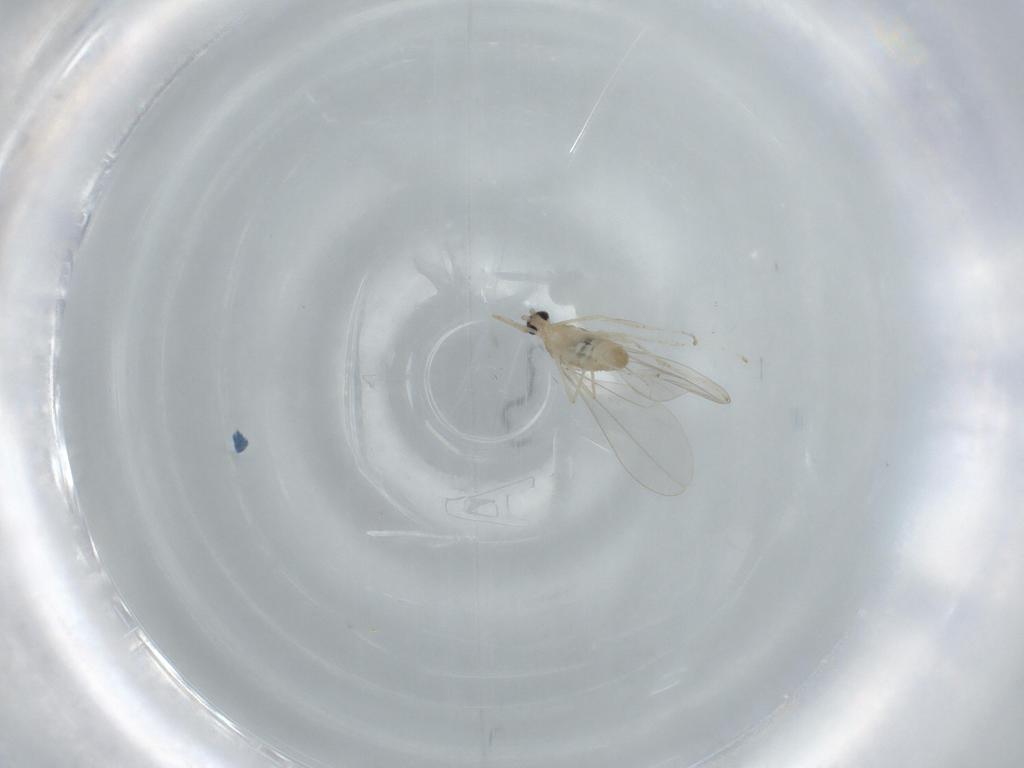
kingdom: Animalia
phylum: Arthropoda
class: Insecta
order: Diptera
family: Cecidomyiidae
